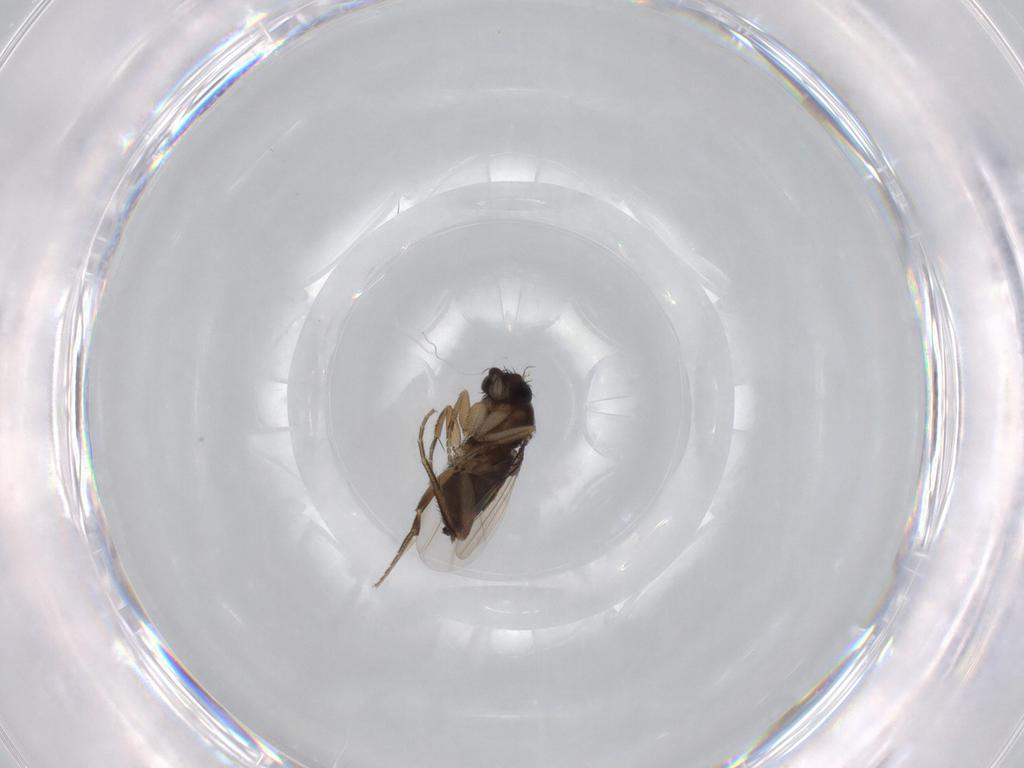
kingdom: Animalia
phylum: Arthropoda
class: Insecta
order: Diptera
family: Phoridae
